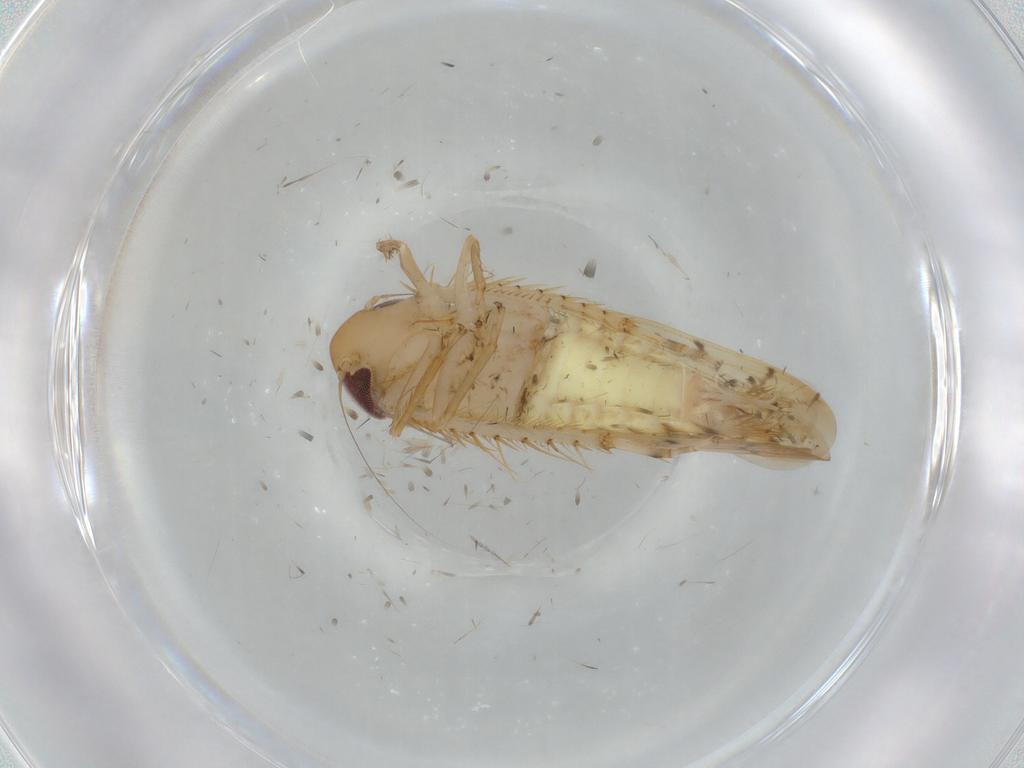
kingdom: Animalia
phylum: Arthropoda
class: Insecta
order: Hemiptera
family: Cicadellidae
